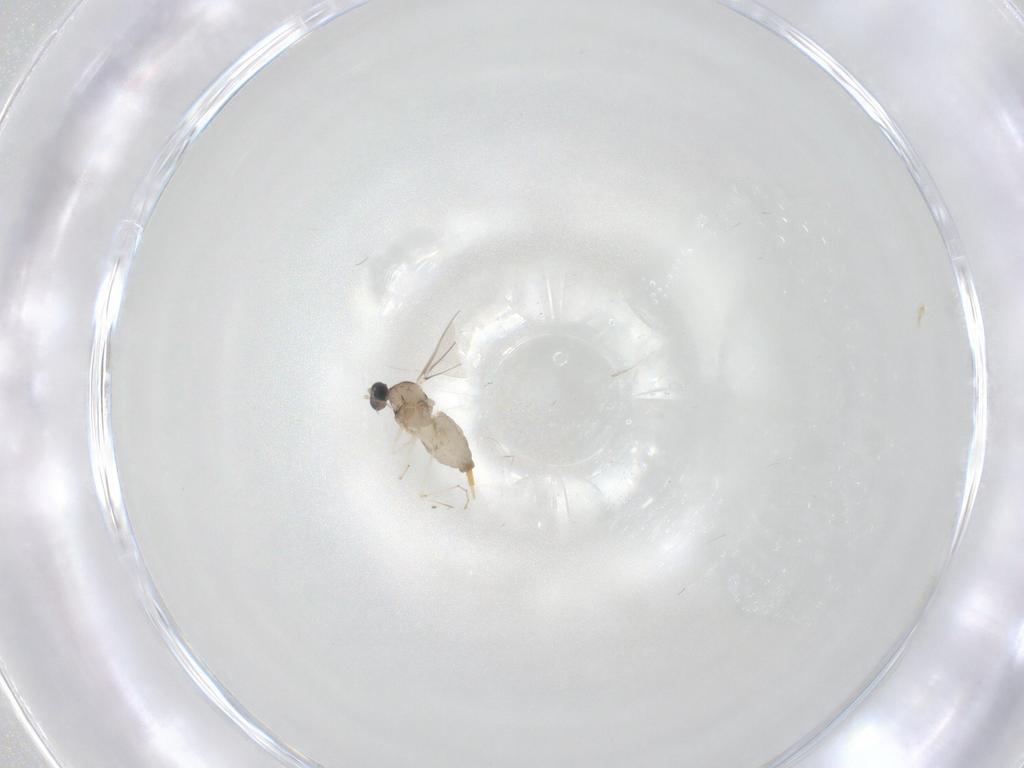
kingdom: Animalia
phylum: Arthropoda
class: Insecta
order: Diptera
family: Cecidomyiidae
